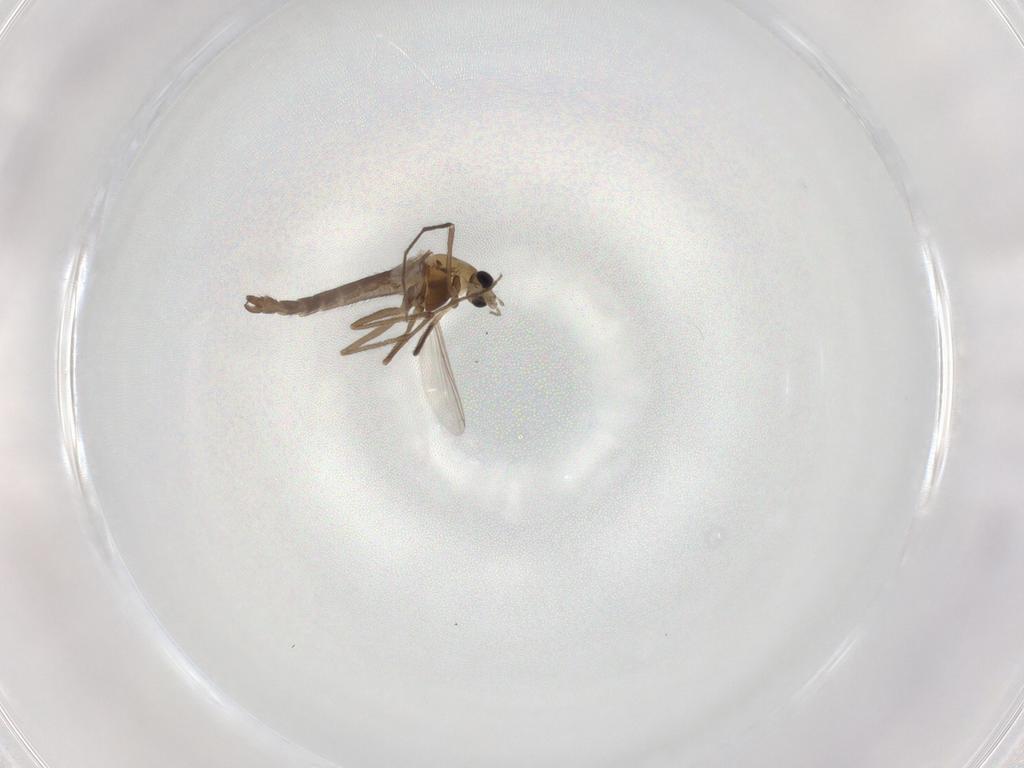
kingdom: Animalia
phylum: Arthropoda
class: Insecta
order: Diptera
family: Chironomidae
